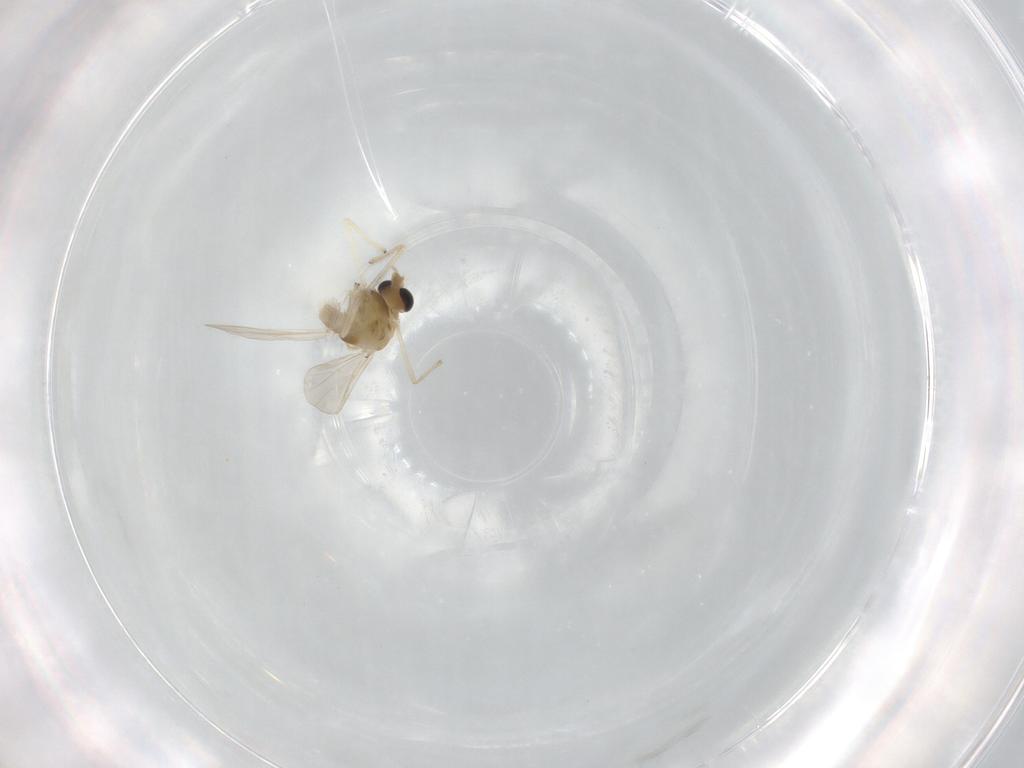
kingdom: Animalia
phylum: Arthropoda
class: Insecta
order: Diptera
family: Chironomidae
